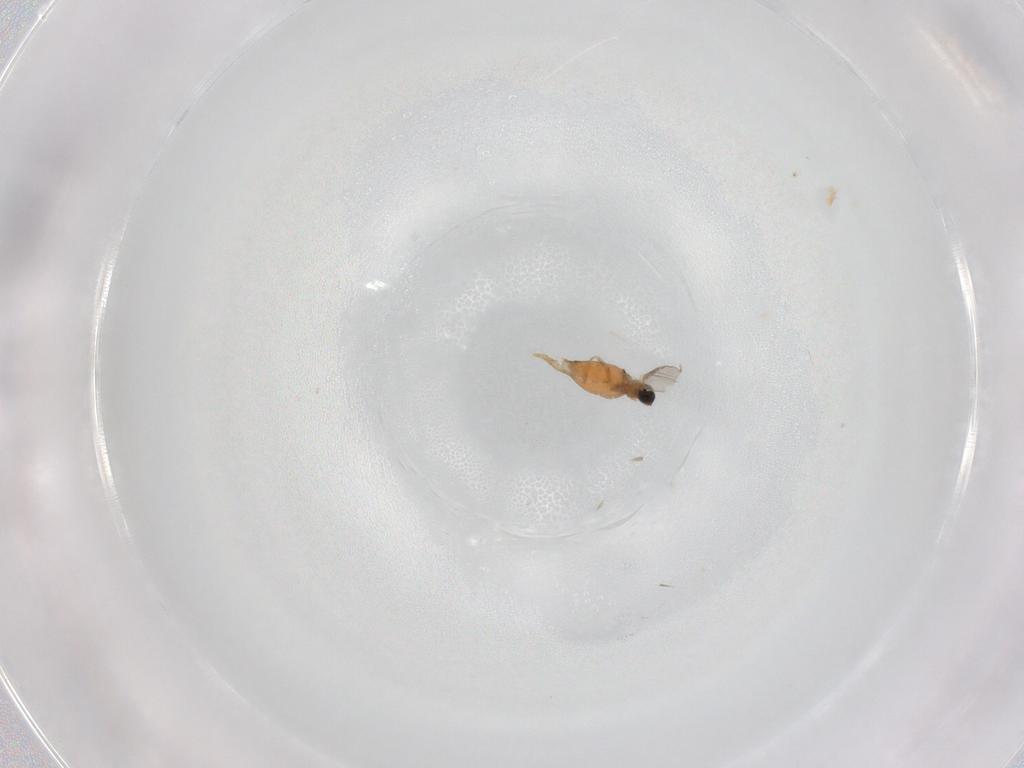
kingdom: Animalia
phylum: Arthropoda
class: Insecta
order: Diptera
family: Cecidomyiidae
